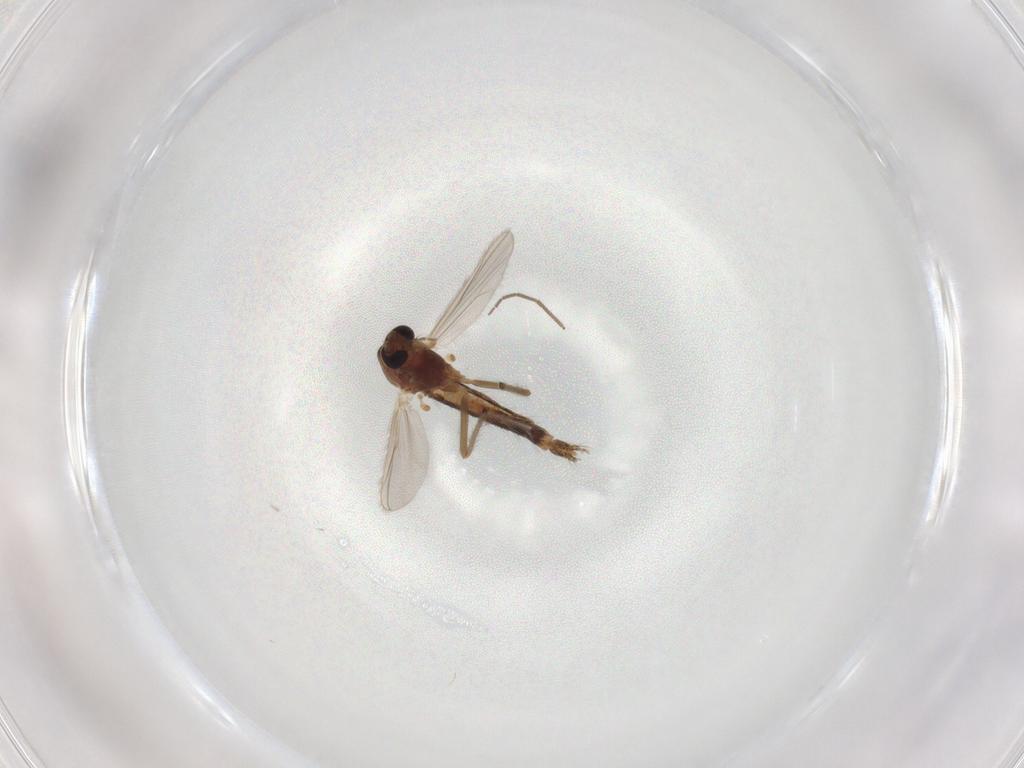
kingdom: Animalia
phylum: Arthropoda
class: Insecta
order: Diptera
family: Chironomidae
